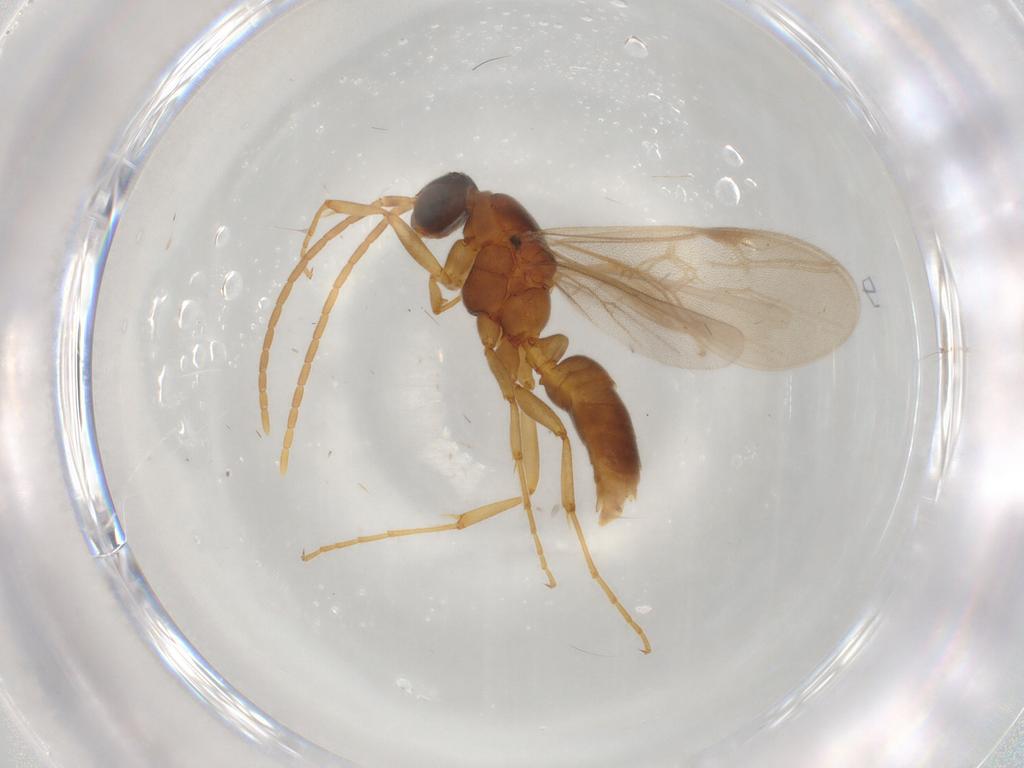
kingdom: Animalia
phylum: Arthropoda
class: Insecta
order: Hymenoptera
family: Formicidae
